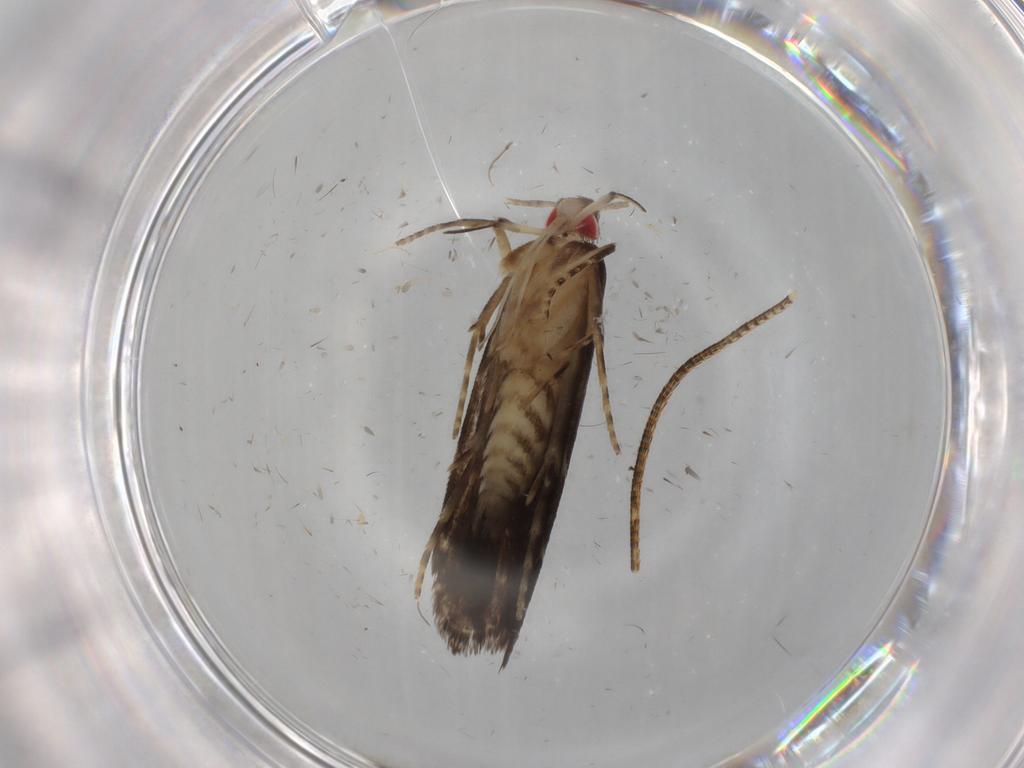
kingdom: Animalia
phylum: Arthropoda
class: Insecta
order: Lepidoptera
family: Gelechiidae
